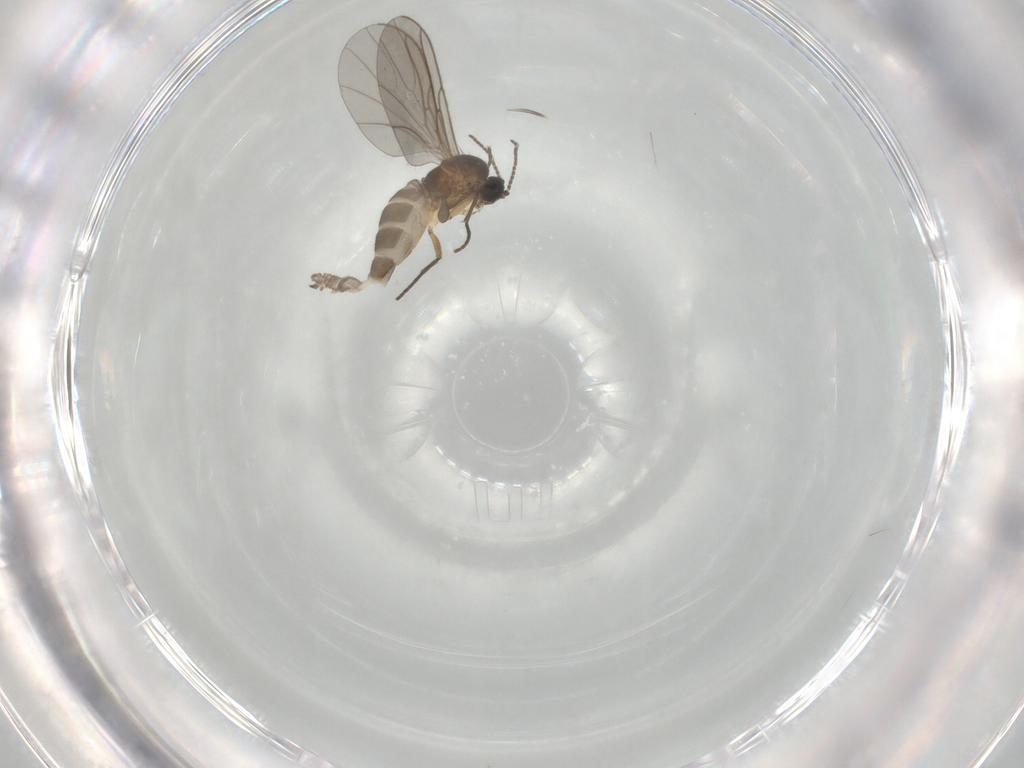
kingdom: Animalia
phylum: Arthropoda
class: Insecta
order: Diptera
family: Sciaridae
